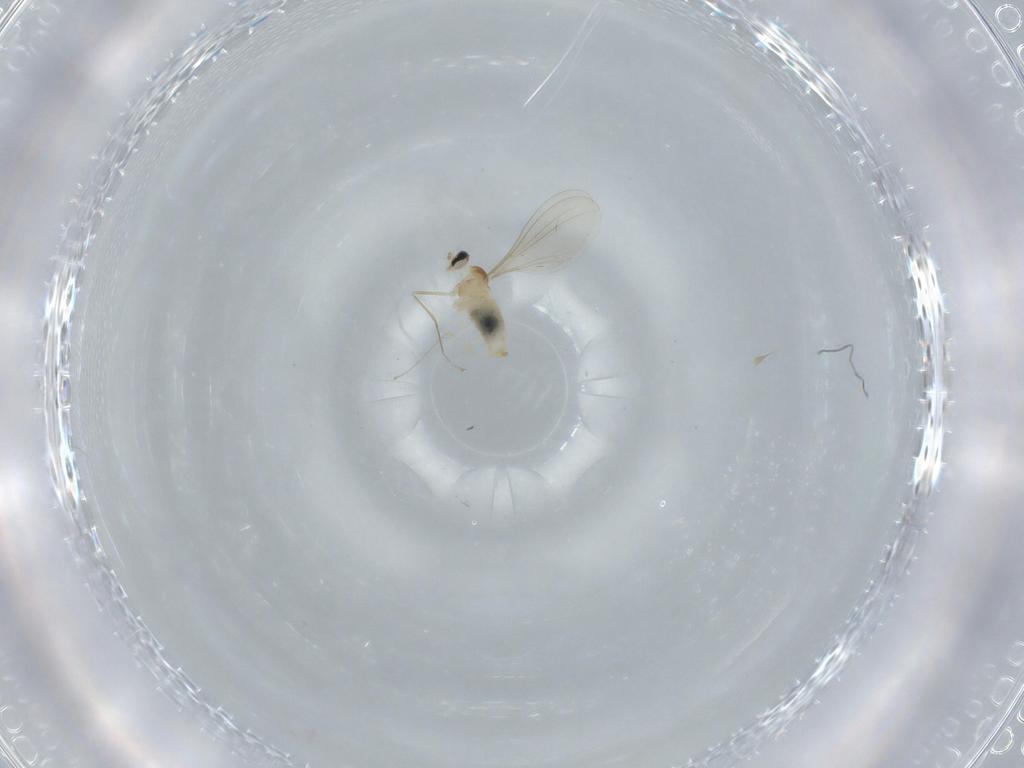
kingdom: Animalia
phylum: Arthropoda
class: Insecta
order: Diptera
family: Cecidomyiidae
